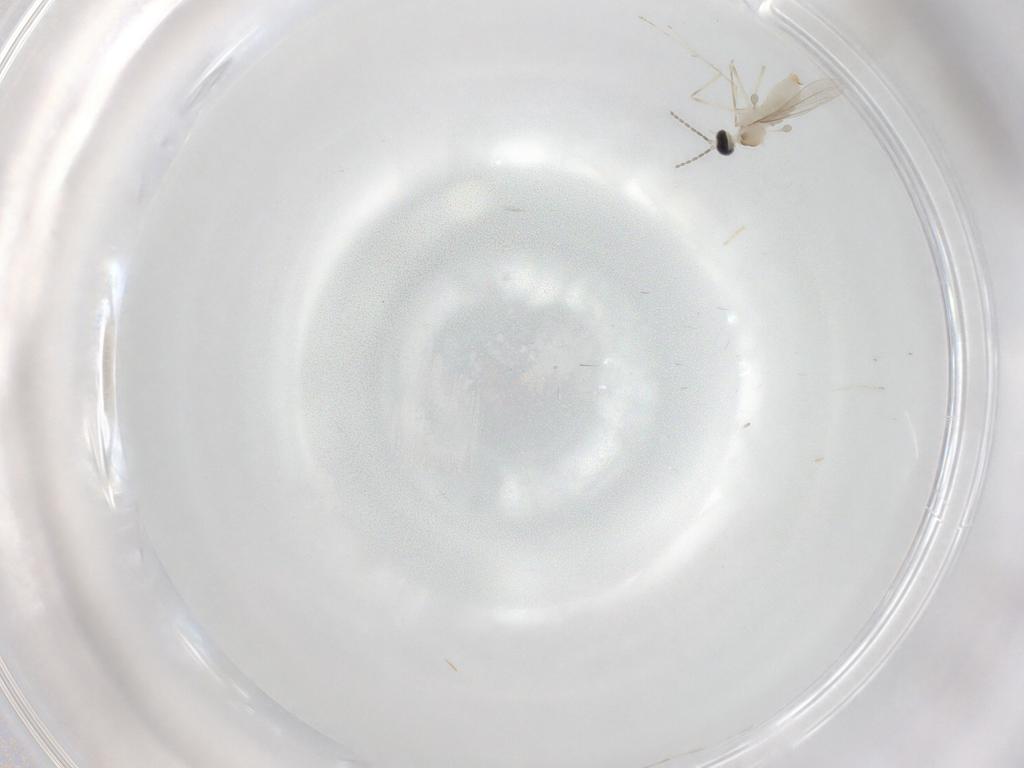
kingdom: Animalia
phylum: Arthropoda
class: Insecta
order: Diptera
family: Cecidomyiidae
